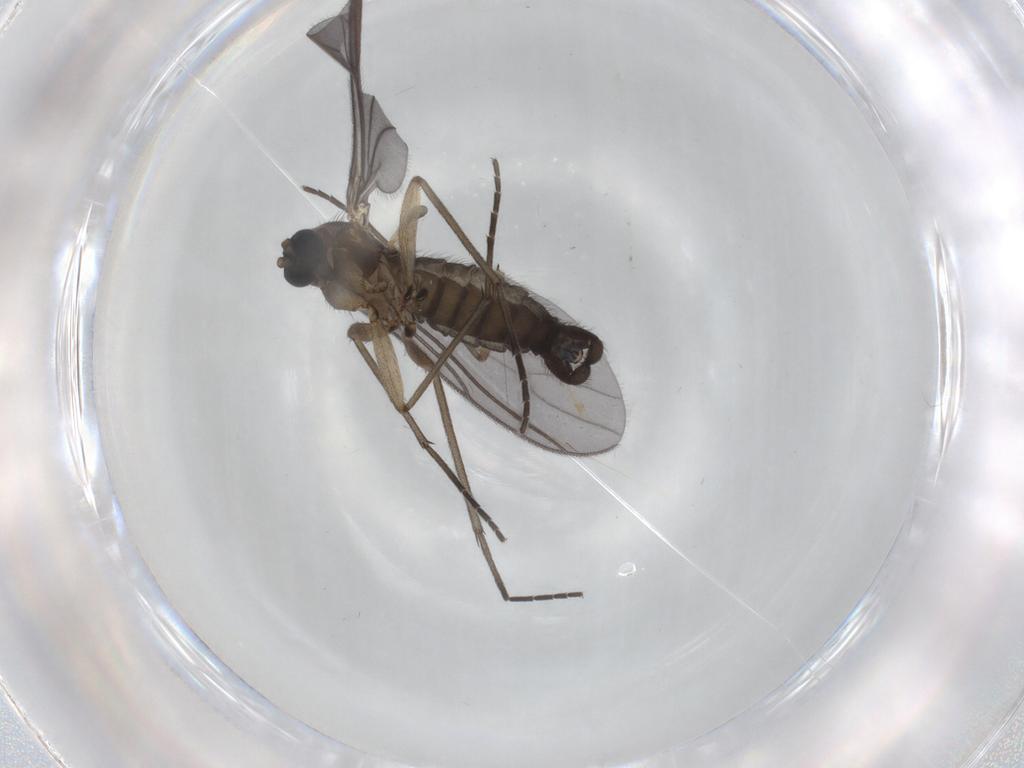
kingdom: Animalia
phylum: Arthropoda
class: Insecta
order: Diptera
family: Sciaridae
